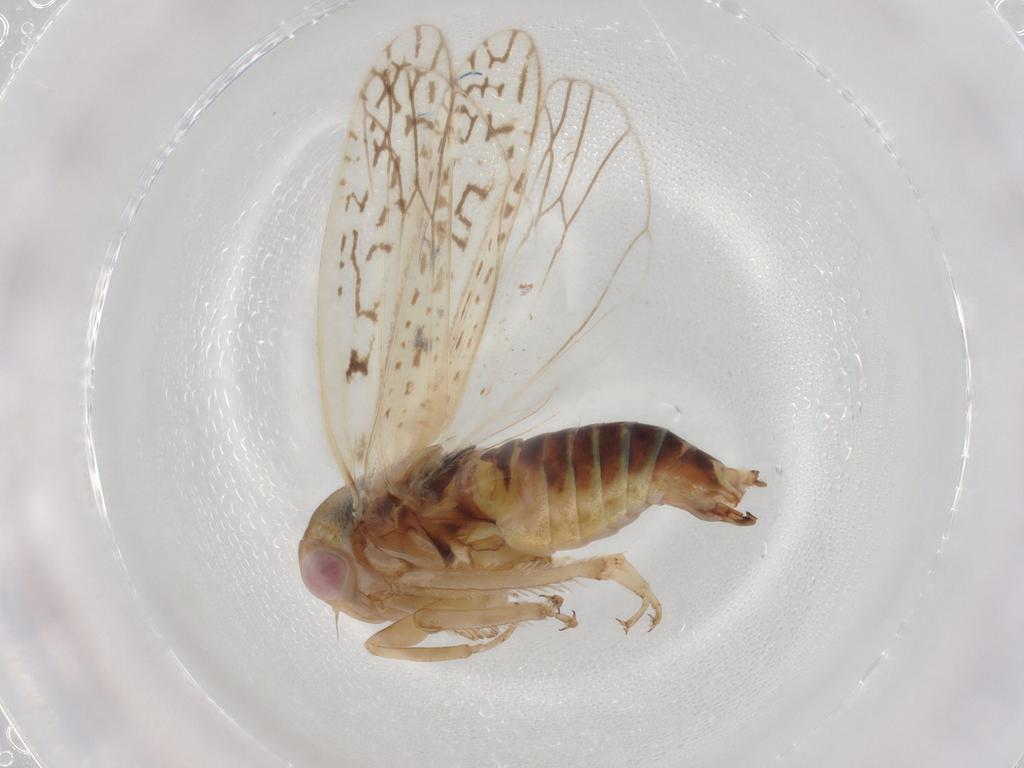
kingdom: Animalia
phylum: Arthropoda
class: Insecta
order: Hemiptera
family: Cicadellidae
